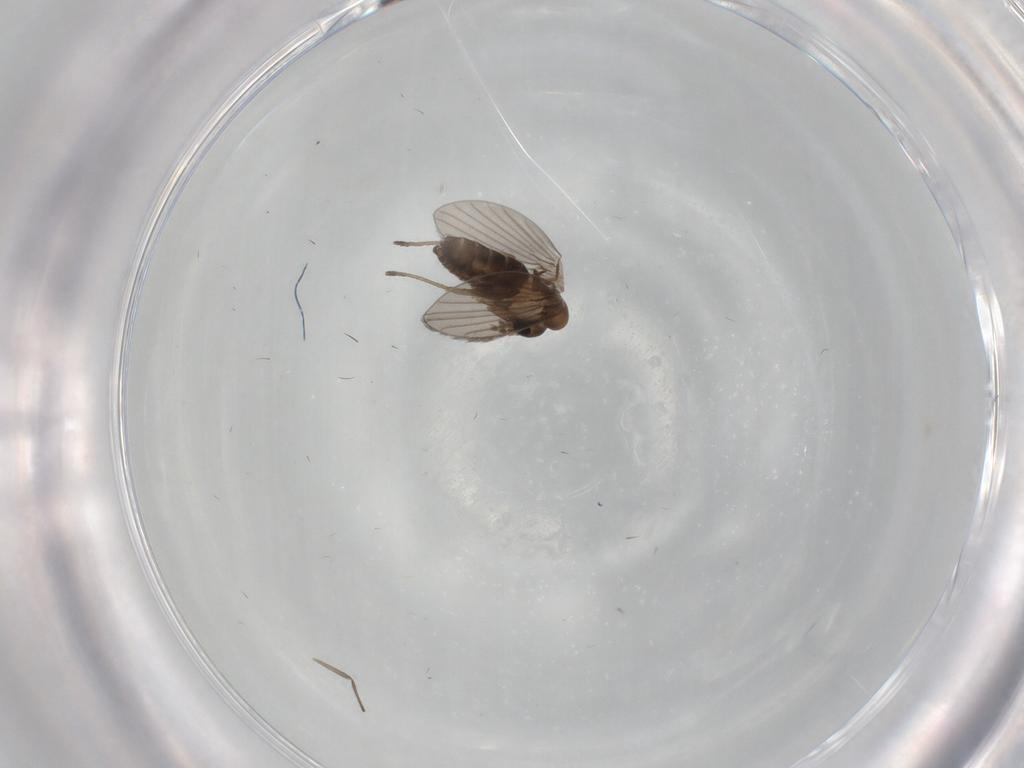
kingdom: Animalia
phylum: Arthropoda
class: Insecta
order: Diptera
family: Psychodidae
